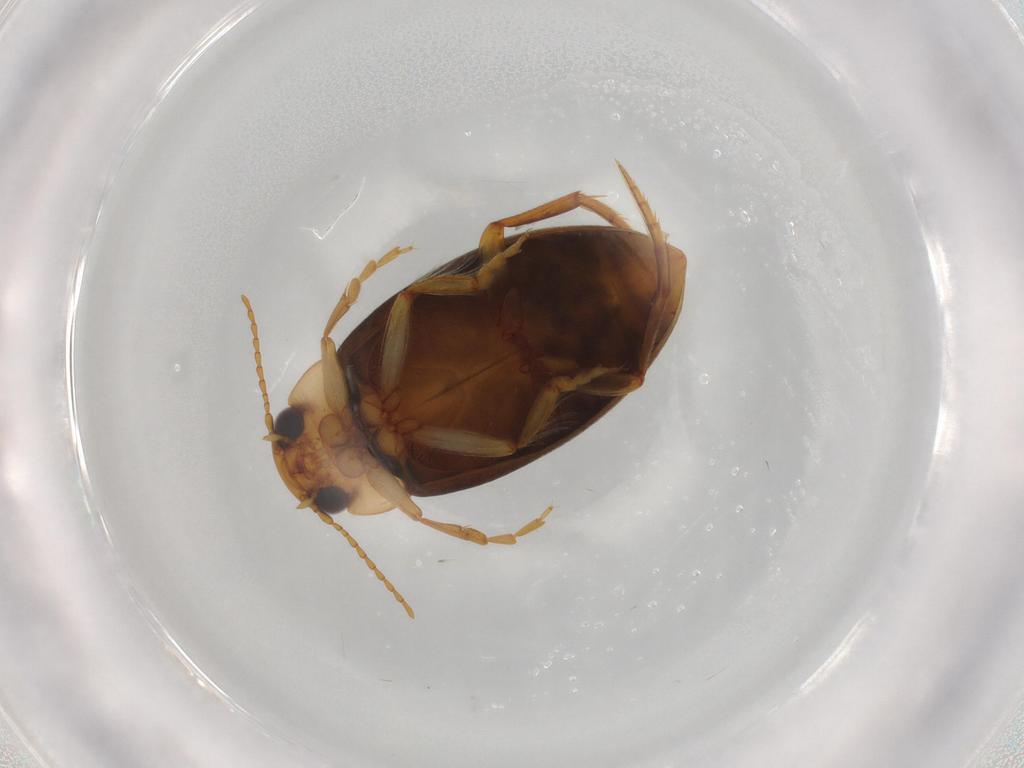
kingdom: Animalia
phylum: Arthropoda
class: Insecta
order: Coleoptera
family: Dytiscidae
